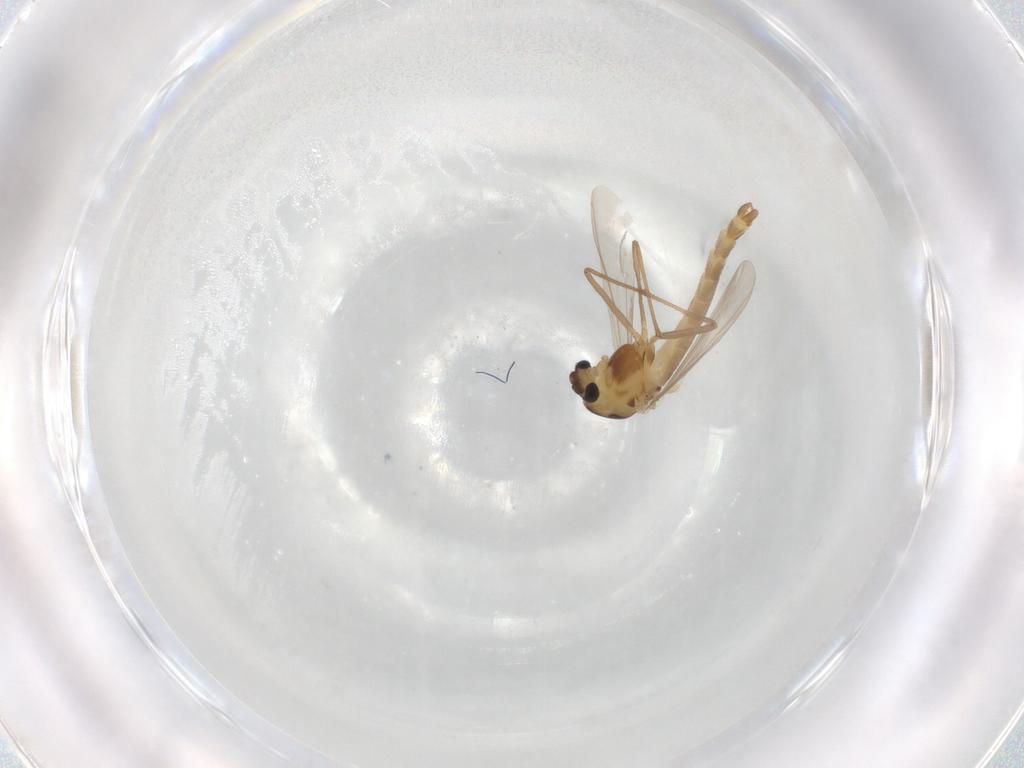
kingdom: Animalia
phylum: Arthropoda
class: Insecta
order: Diptera
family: Chironomidae
